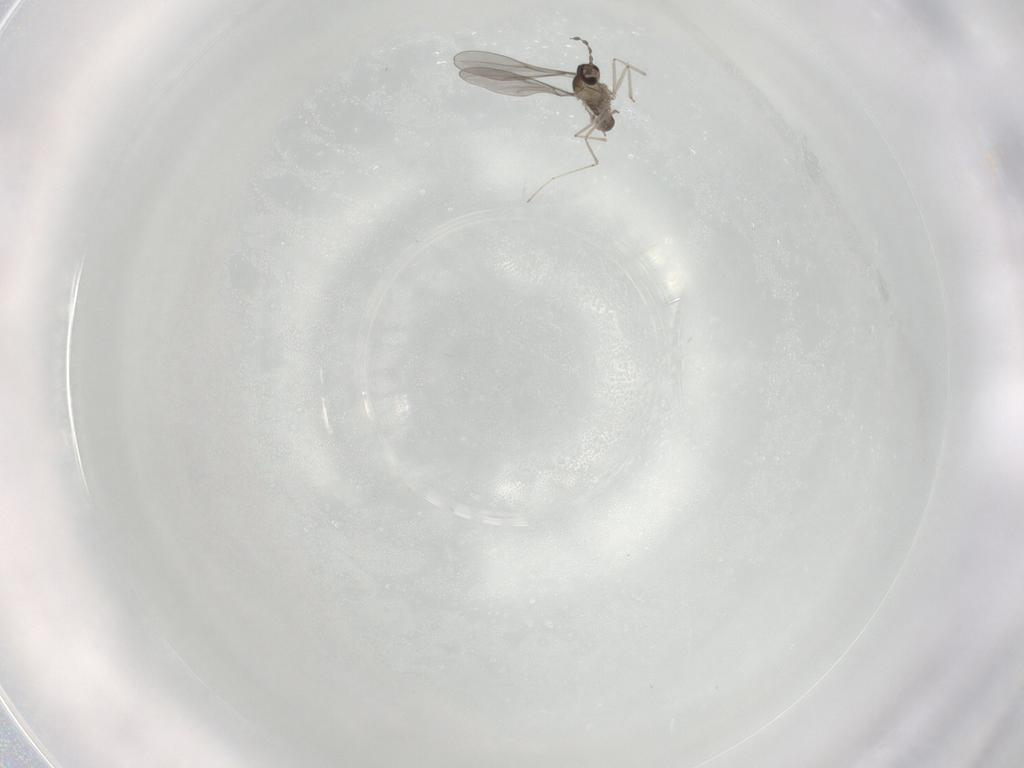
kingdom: Animalia
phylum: Arthropoda
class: Insecta
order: Diptera
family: Cecidomyiidae
